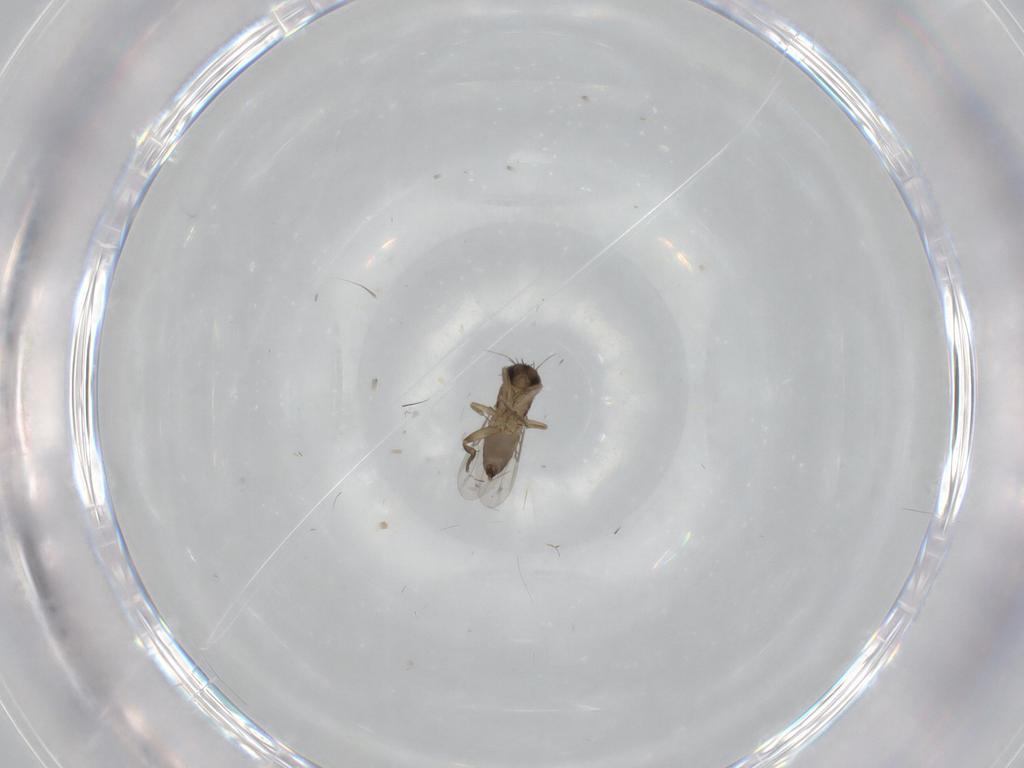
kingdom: Animalia
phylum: Arthropoda
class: Insecta
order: Diptera
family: Phoridae
